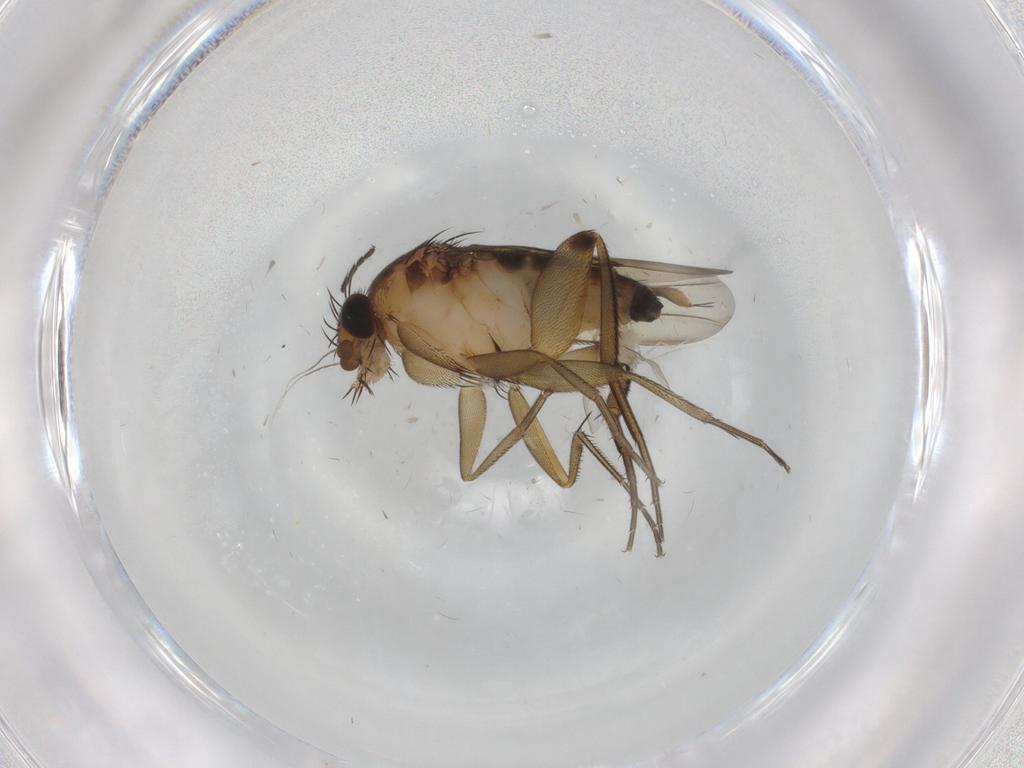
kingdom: Animalia
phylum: Arthropoda
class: Insecta
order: Diptera
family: Phoridae
